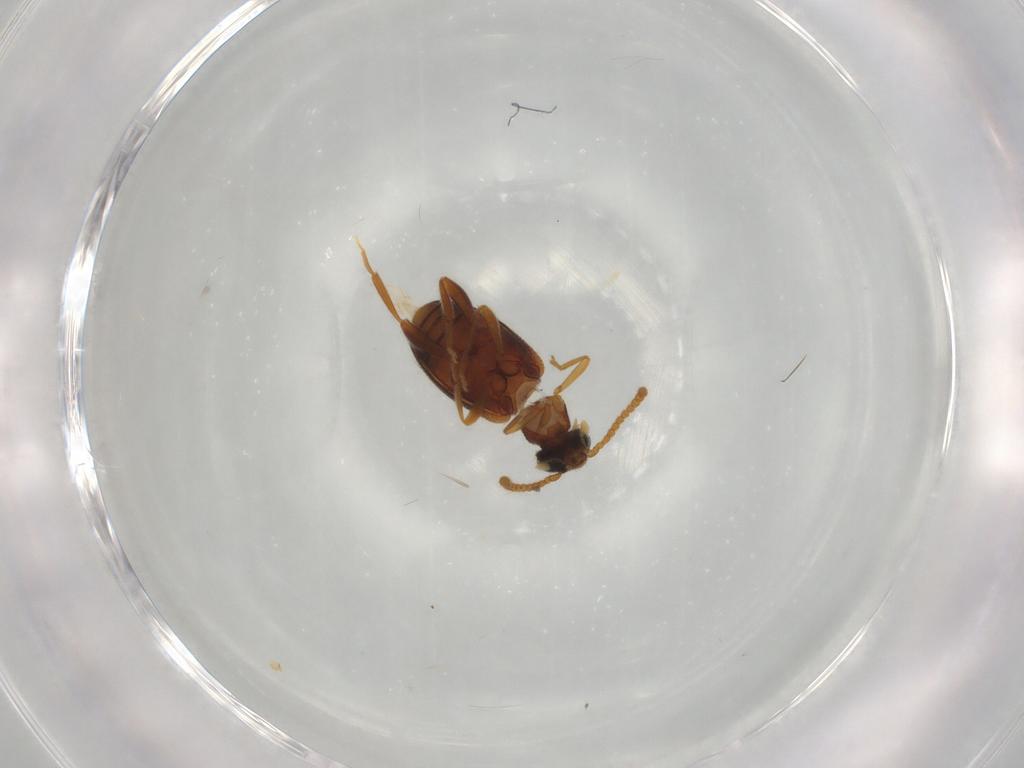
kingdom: Animalia
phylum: Arthropoda
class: Insecta
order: Coleoptera
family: Aderidae
